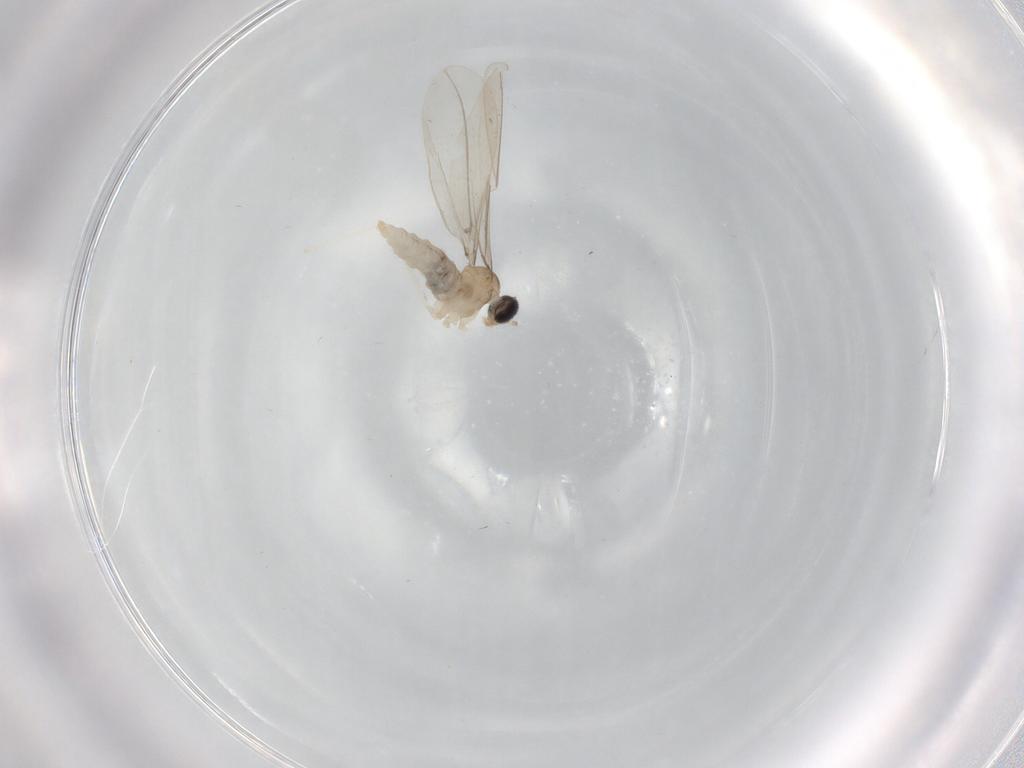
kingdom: Animalia
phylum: Arthropoda
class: Insecta
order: Diptera
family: Cecidomyiidae
